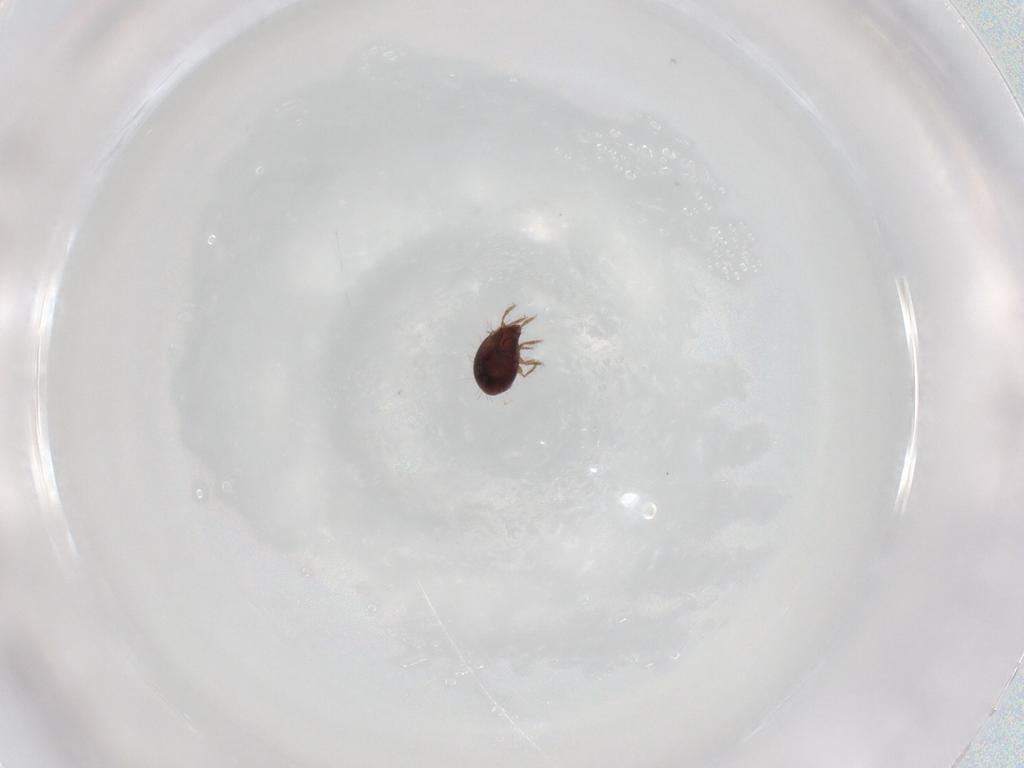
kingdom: Animalia
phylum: Arthropoda
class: Arachnida
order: Sarcoptiformes
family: Humerobatidae
